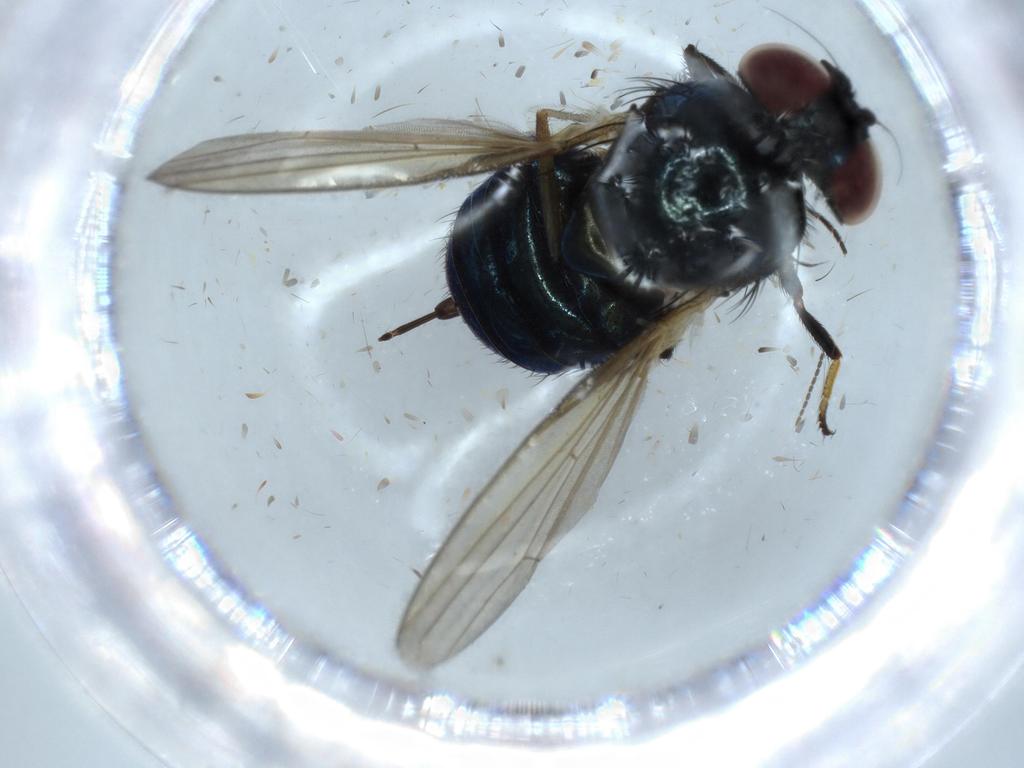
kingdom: Animalia
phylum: Arthropoda
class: Insecta
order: Diptera
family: Sciaridae
